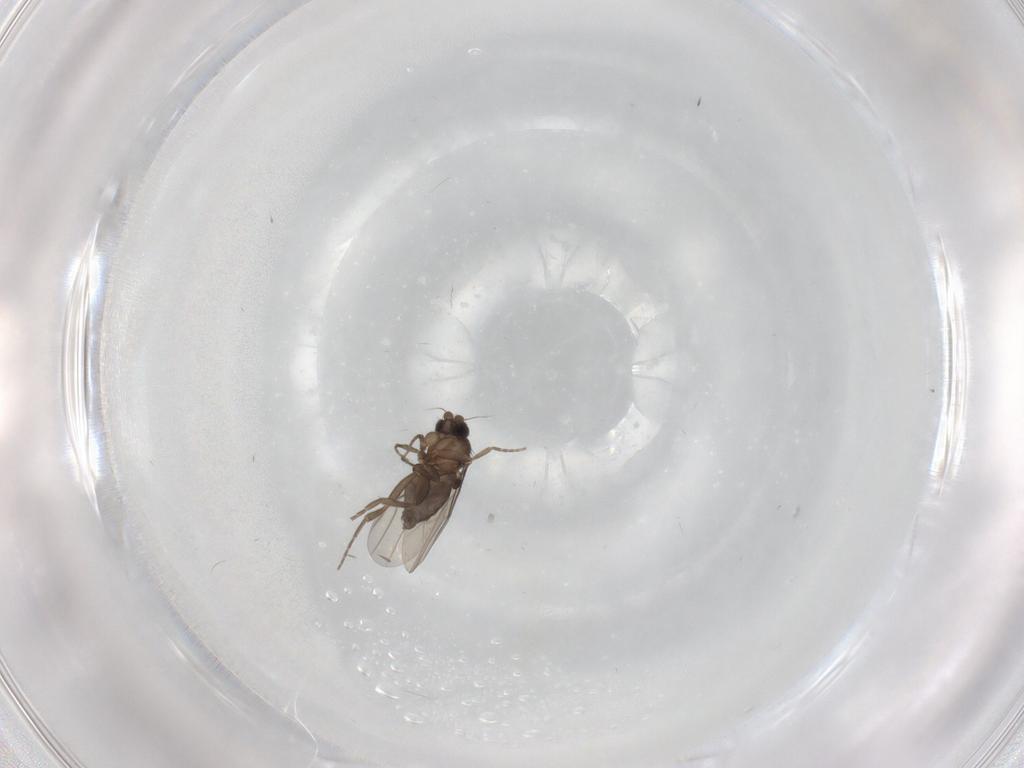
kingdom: Animalia
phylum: Arthropoda
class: Insecta
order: Diptera
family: Phoridae
